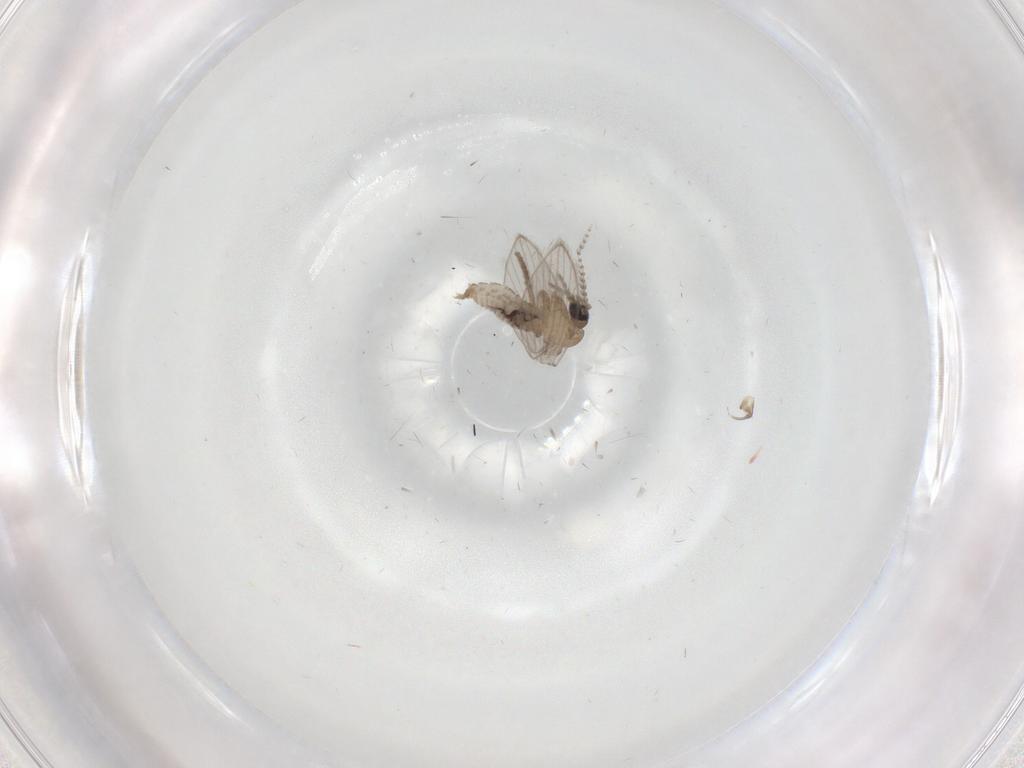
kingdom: Animalia
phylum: Arthropoda
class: Insecta
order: Diptera
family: Psychodidae
